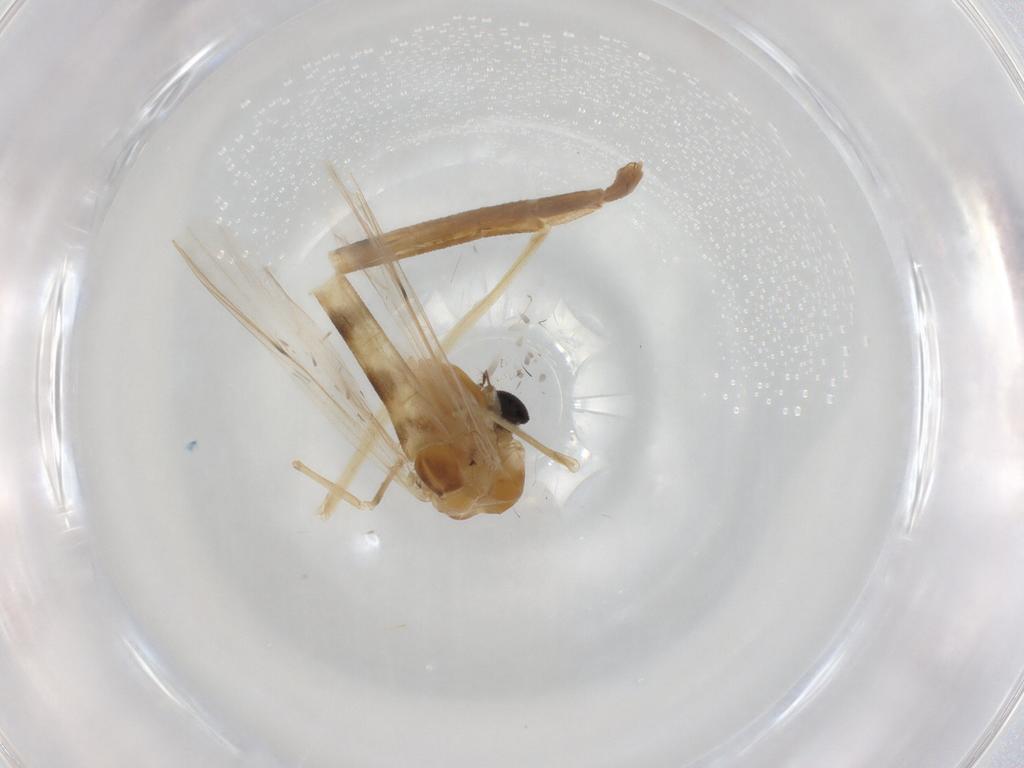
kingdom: Animalia
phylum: Arthropoda
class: Insecta
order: Diptera
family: Chironomidae
